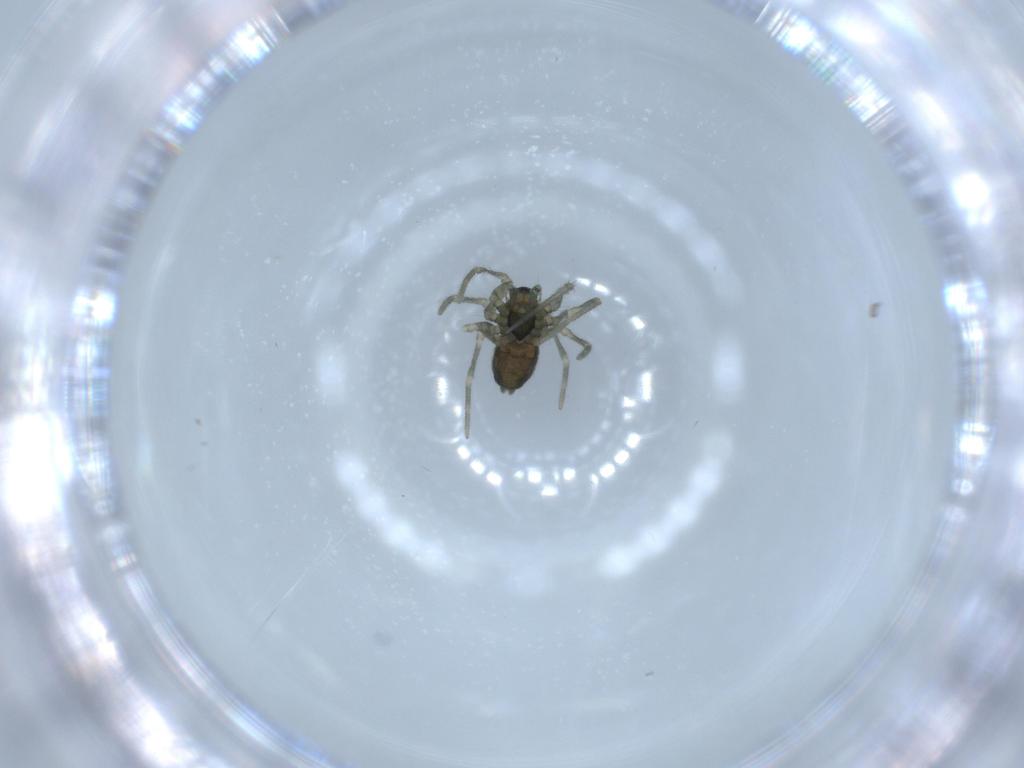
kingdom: Animalia
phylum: Arthropoda
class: Arachnida
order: Araneae
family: Linyphiidae
